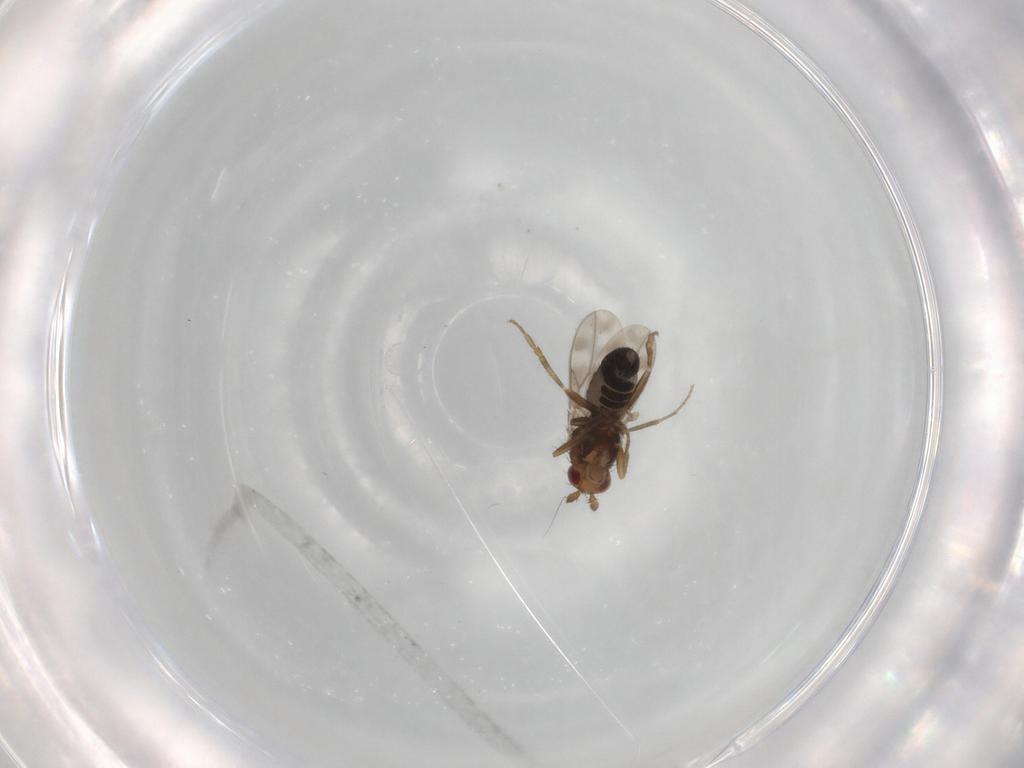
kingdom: Animalia
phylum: Arthropoda
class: Insecta
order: Diptera
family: Sphaeroceridae
